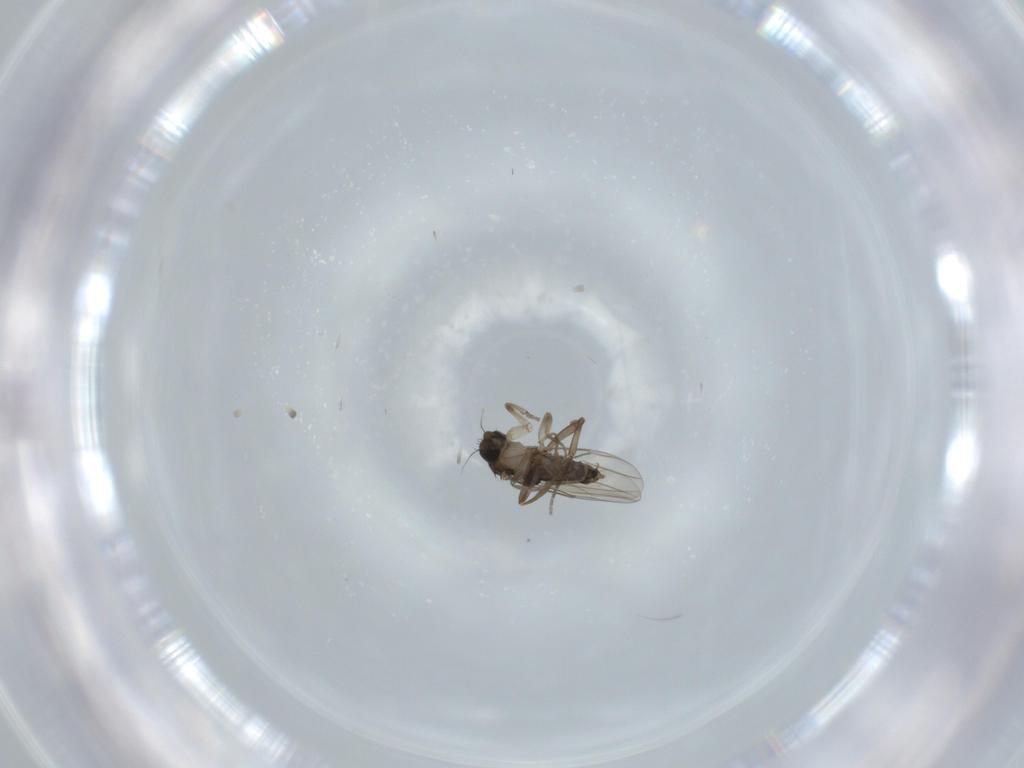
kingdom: Animalia
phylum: Arthropoda
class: Insecta
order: Diptera
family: Phoridae
